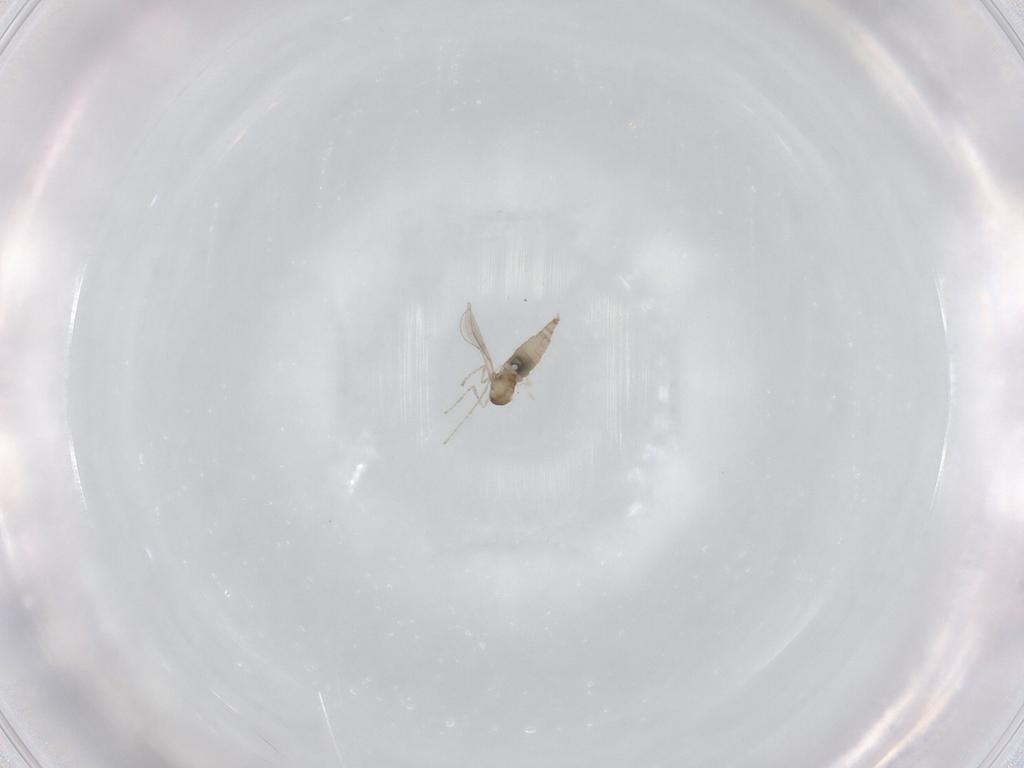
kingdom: Animalia
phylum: Arthropoda
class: Insecta
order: Diptera
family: Cecidomyiidae
